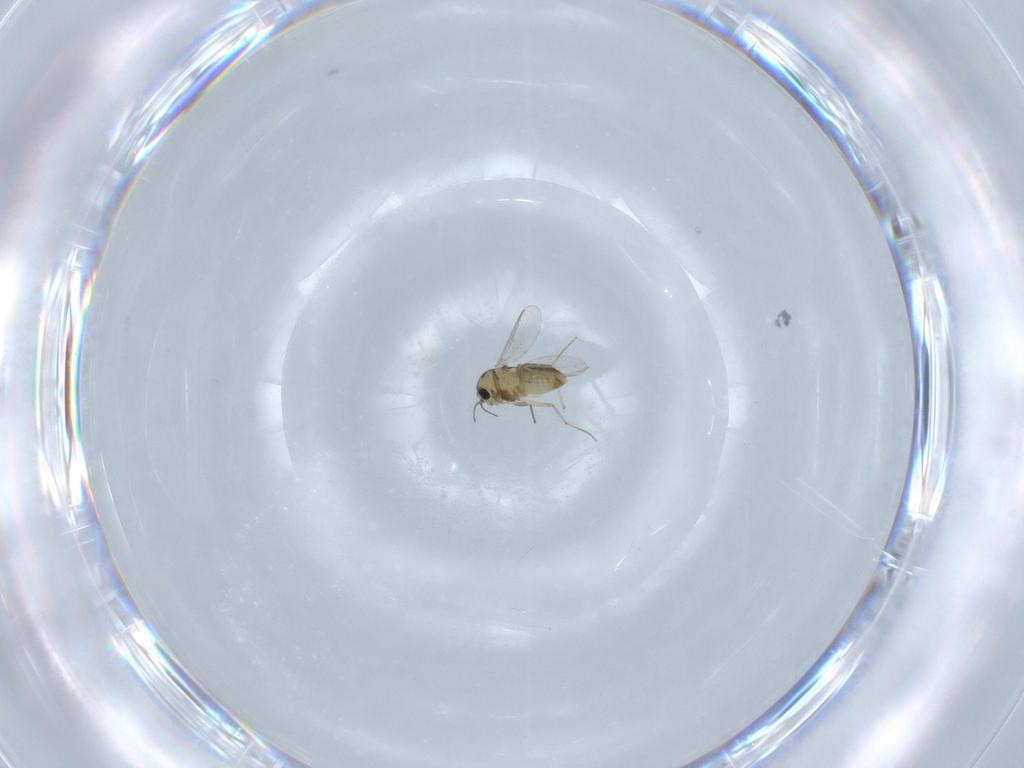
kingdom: Animalia
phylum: Arthropoda
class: Insecta
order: Diptera
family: Chironomidae
